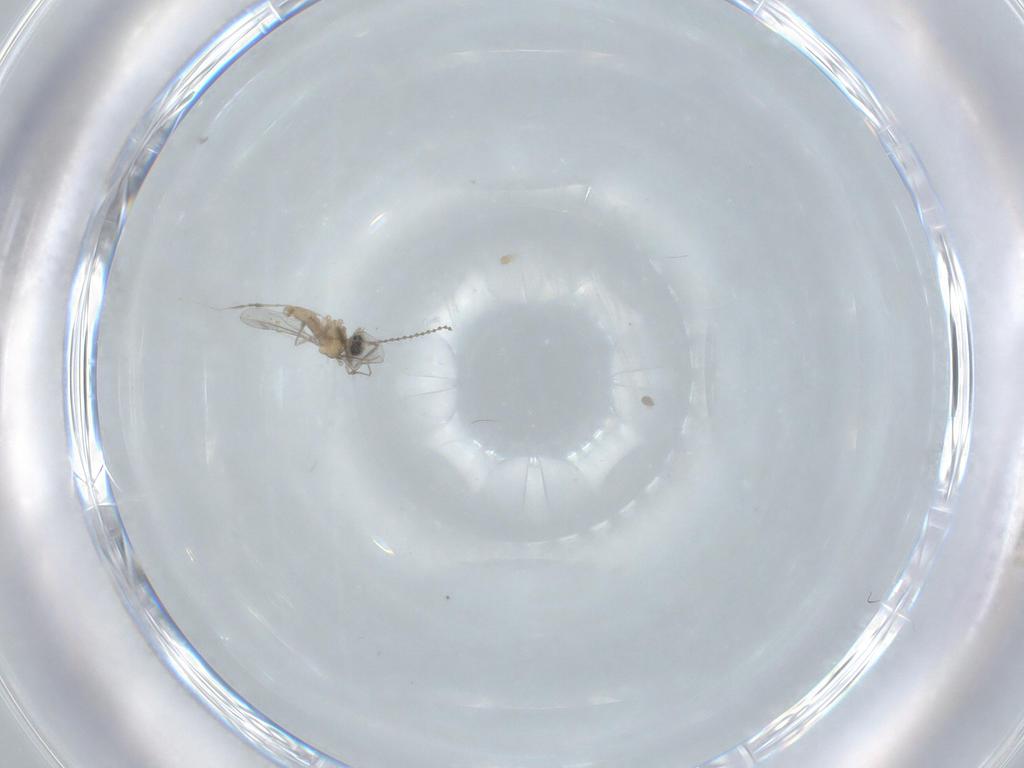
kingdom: Animalia
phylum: Arthropoda
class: Insecta
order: Diptera
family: Cecidomyiidae
